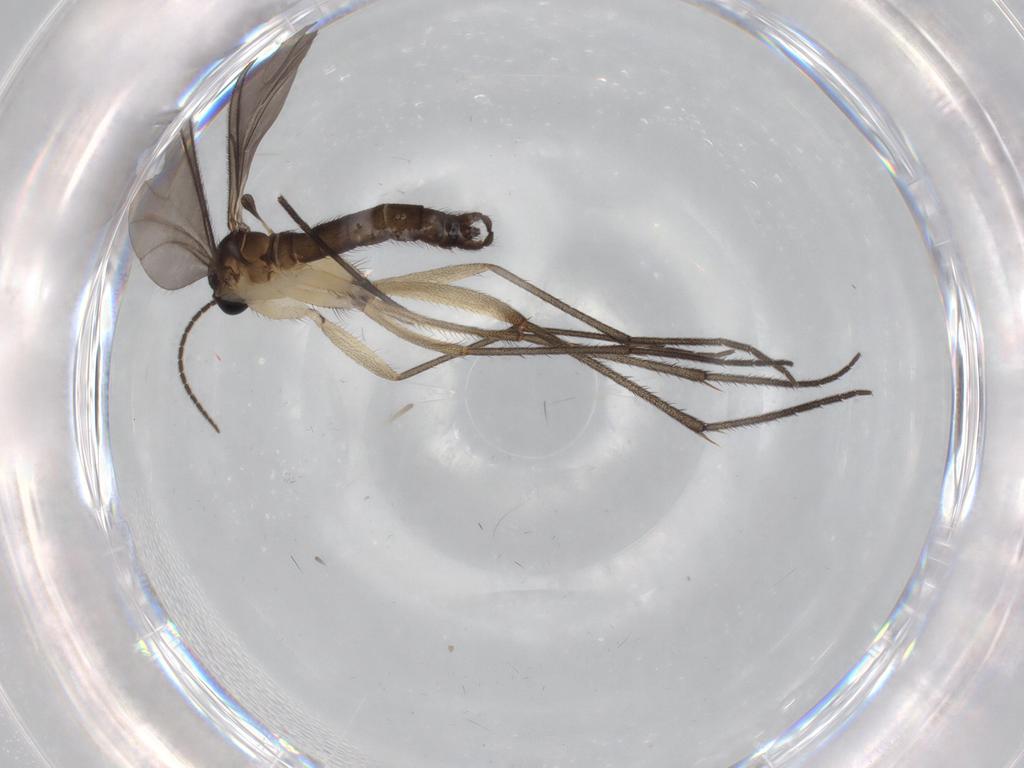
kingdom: Animalia
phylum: Arthropoda
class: Insecta
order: Diptera
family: Sciaridae
